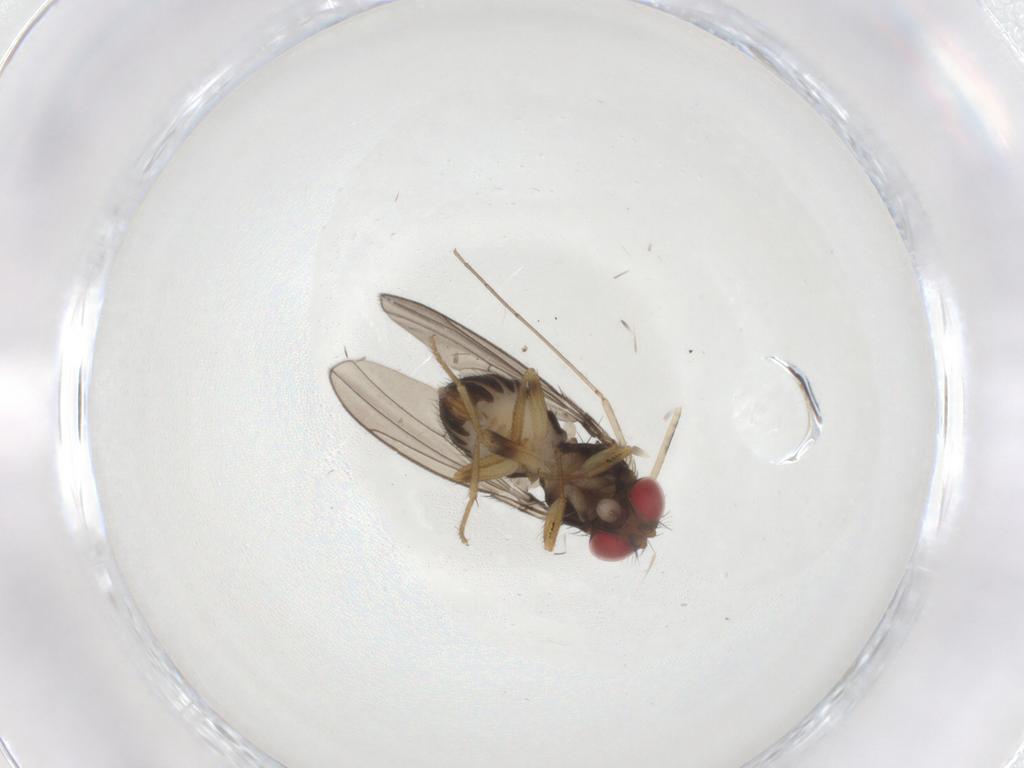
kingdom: Animalia
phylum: Arthropoda
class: Insecta
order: Diptera
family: Drosophilidae
